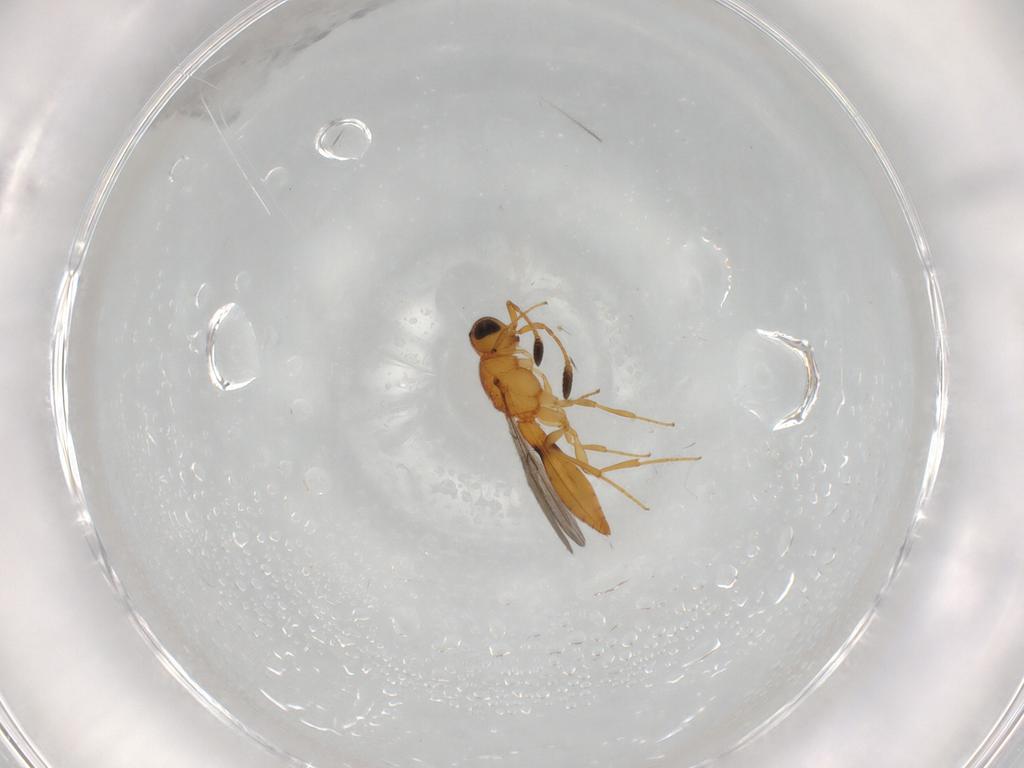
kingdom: Animalia
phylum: Arthropoda
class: Insecta
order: Hymenoptera
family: Scelionidae
